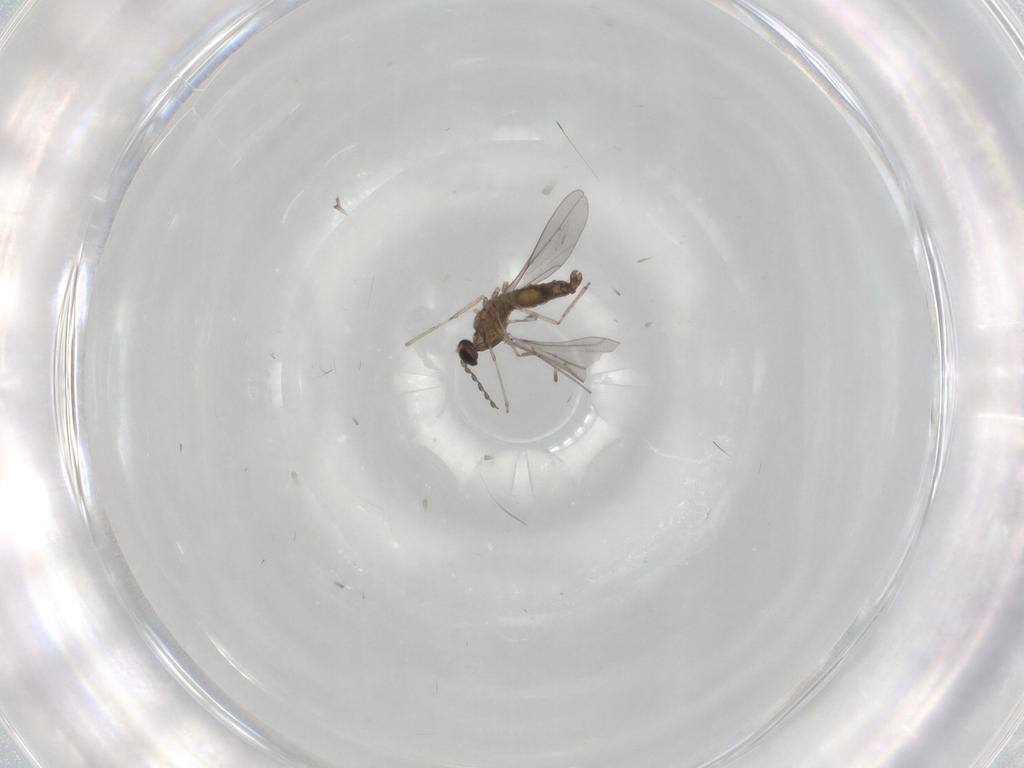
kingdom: Animalia
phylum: Arthropoda
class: Insecta
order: Diptera
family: Cecidomyiidae
